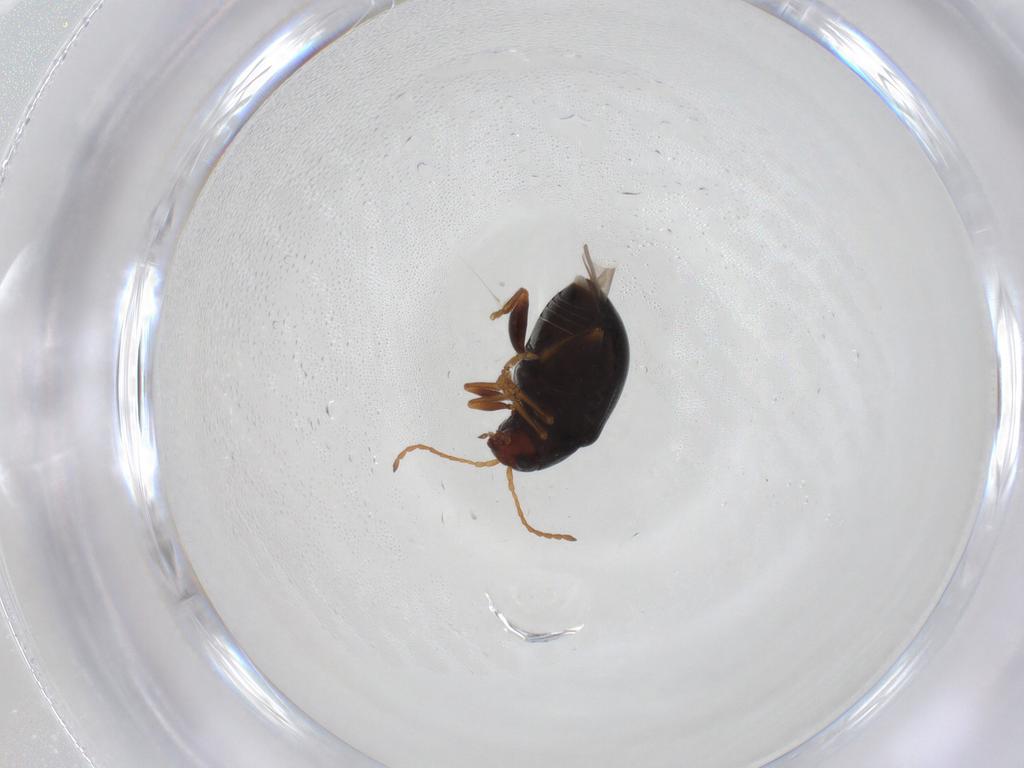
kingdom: Animalia
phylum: Arthropoda
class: Insecta
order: Coleoptera
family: Chrysomelidae
